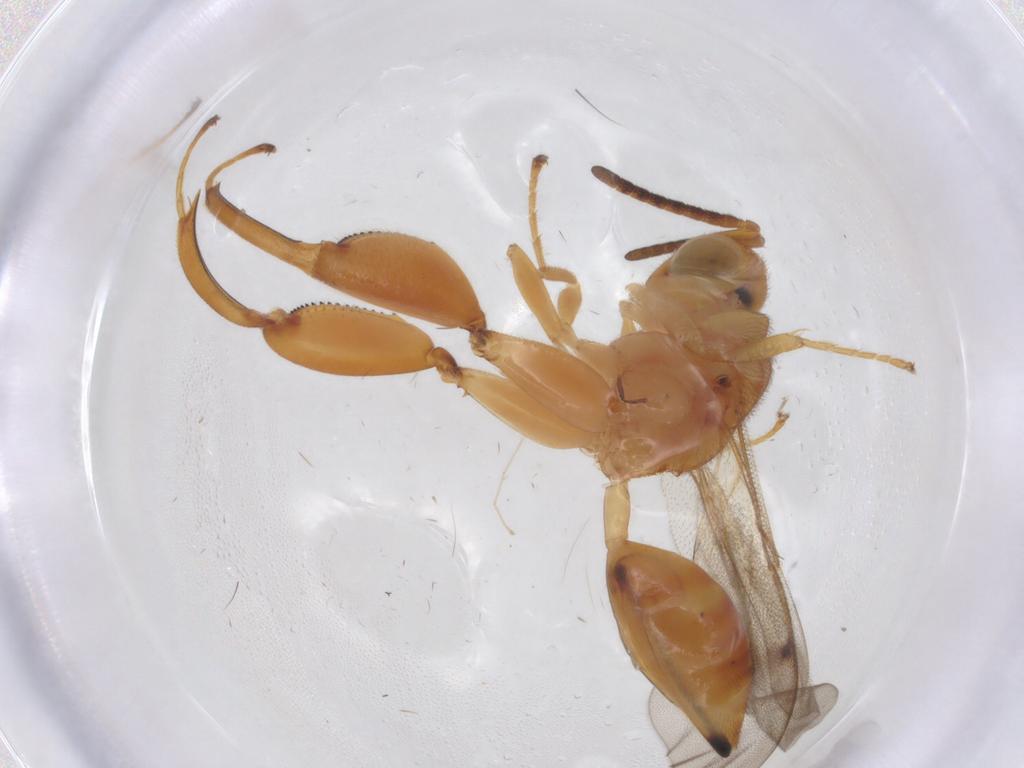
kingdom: Animalia
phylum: Arthropoda
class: Insecta
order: Hymenoptera
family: Chalcididae
